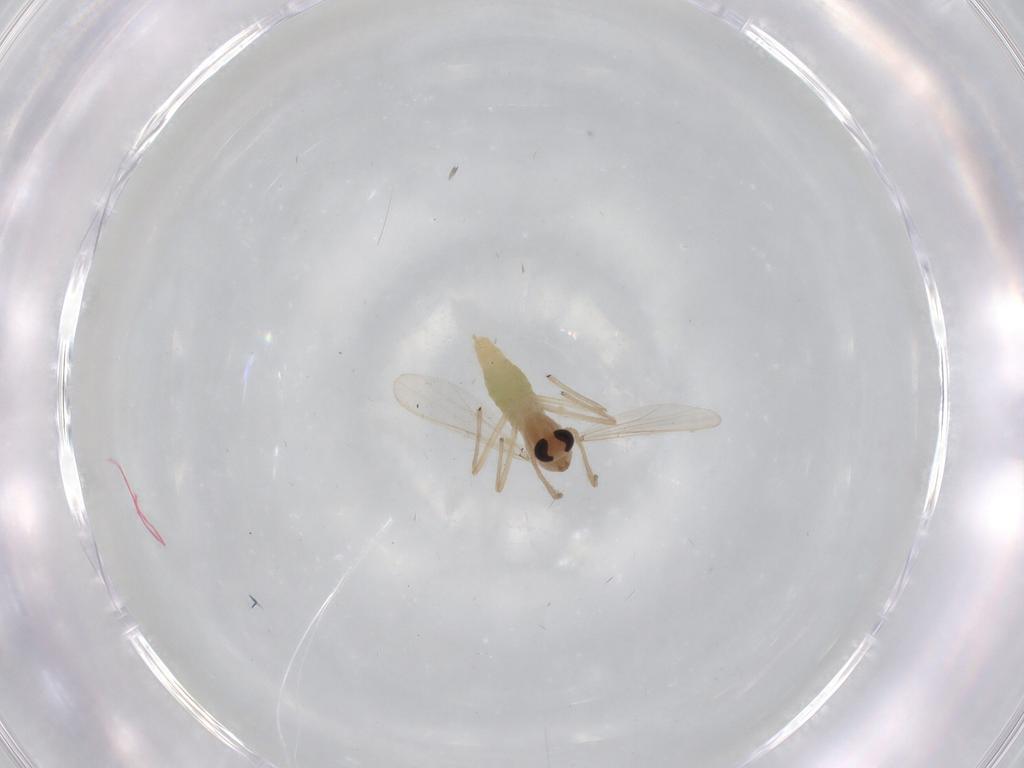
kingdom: Animalia
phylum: Arthropoda
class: Insecta
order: Diptera
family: Chironomidae
